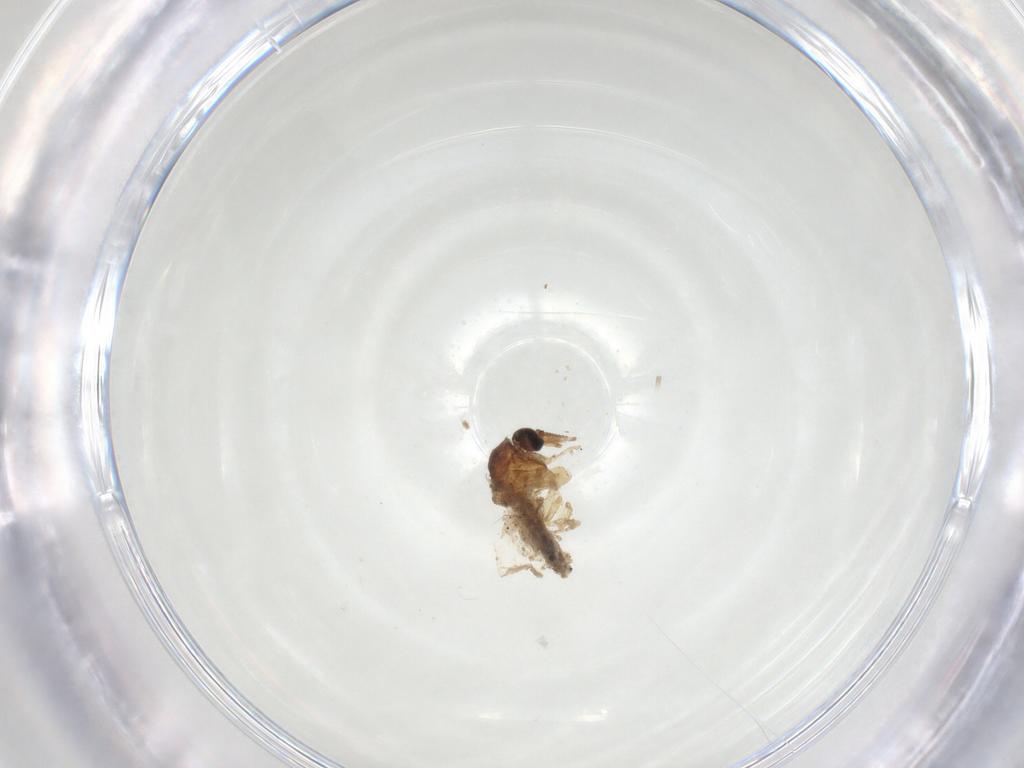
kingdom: Animalia
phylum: Arthropoda
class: Insecta
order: Diptera
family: Muscidae
